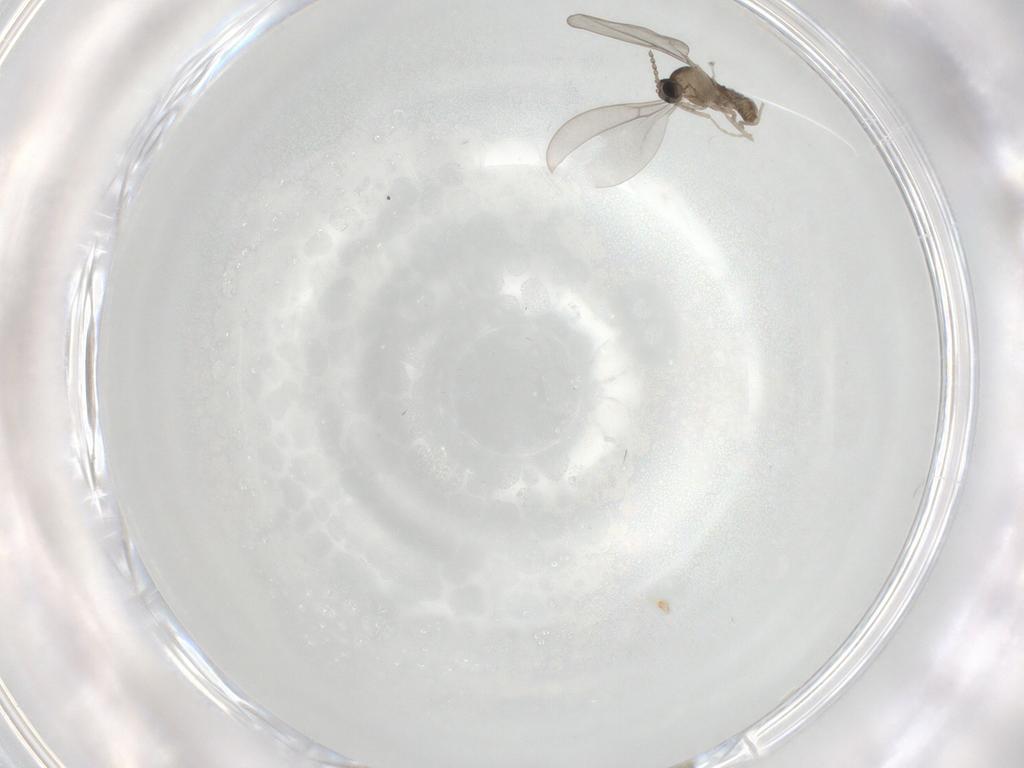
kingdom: Animalia
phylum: Arthropoda
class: Insecta
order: Diptera
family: Cecidomyiidae
